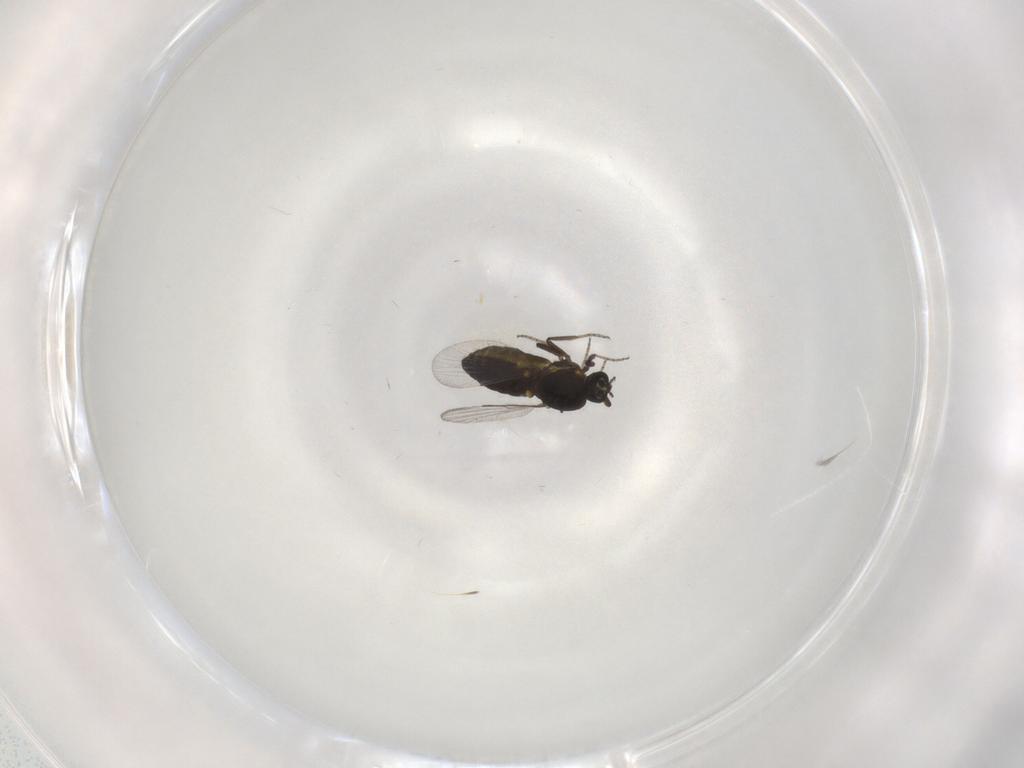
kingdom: Animalia
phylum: Arthropoda
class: Insecta
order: Diptera
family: Ceratopogonidae
